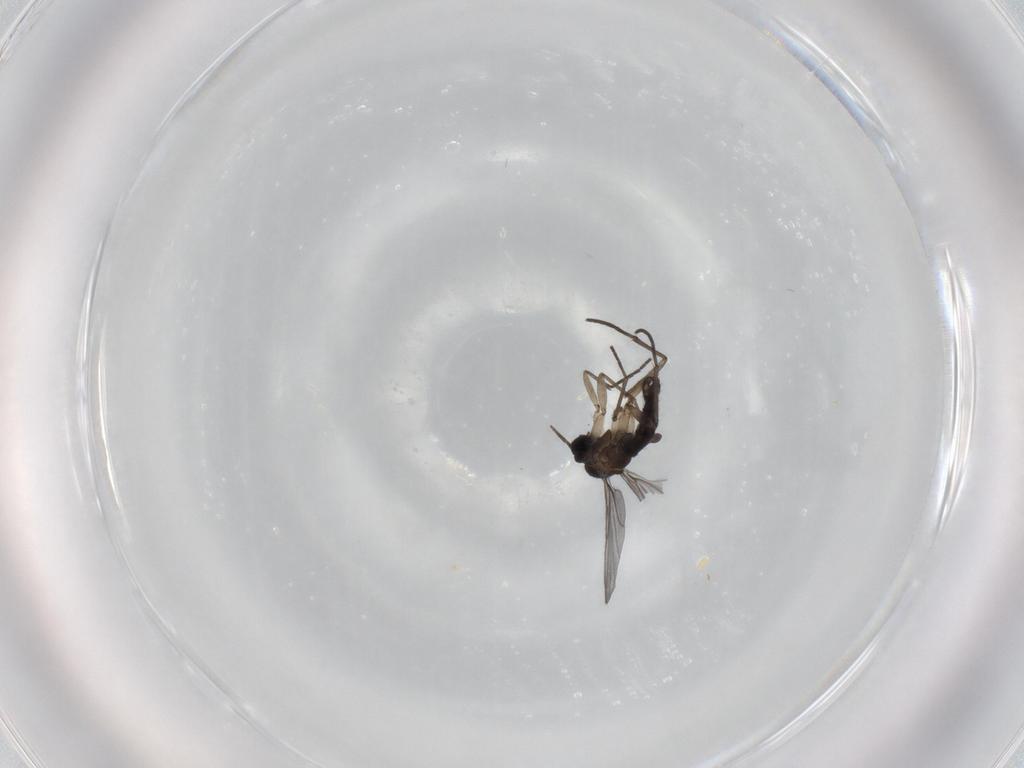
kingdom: Animalia
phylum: Arthropoda
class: Insecta
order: Diptera
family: Sciaridae
